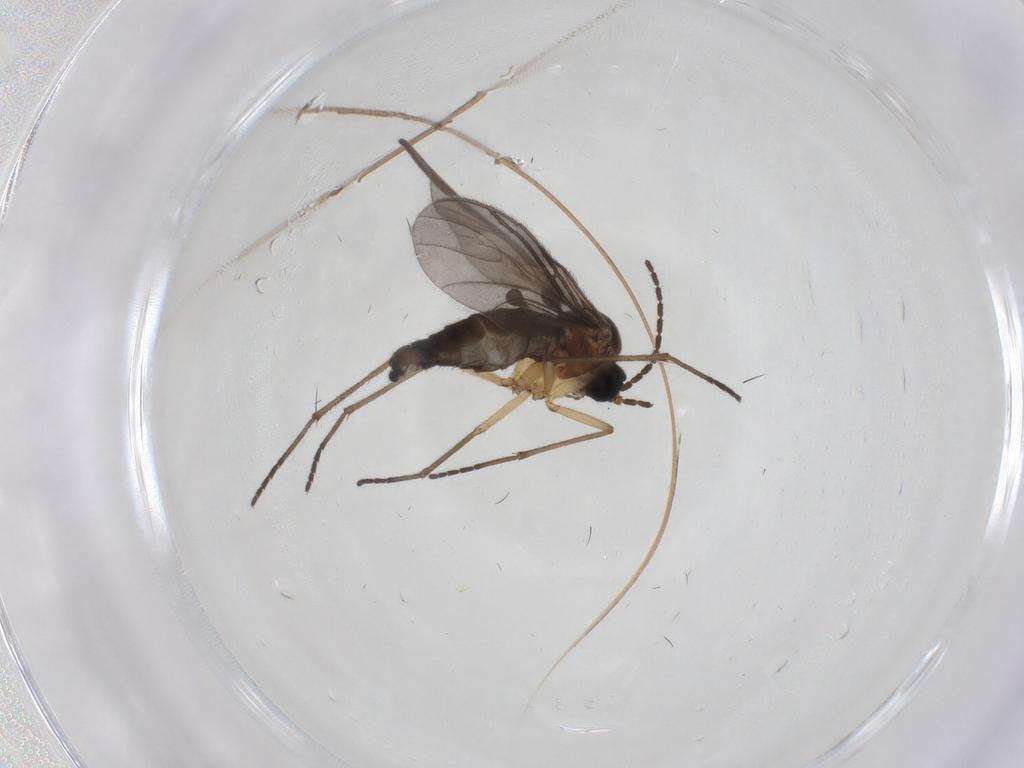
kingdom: Animalia
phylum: Arthropoda
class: Insecta
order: Diptera
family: Sciaridae
